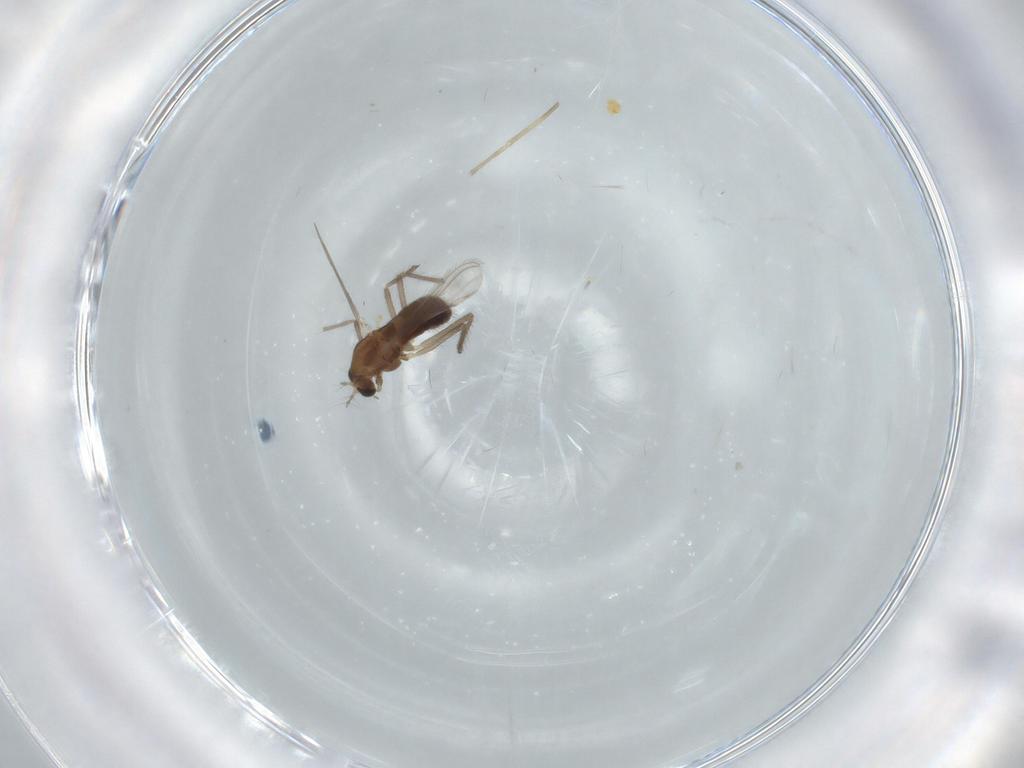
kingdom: Animalia
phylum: Arthropoda
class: Insecta
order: Diptera
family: Chironomidae
